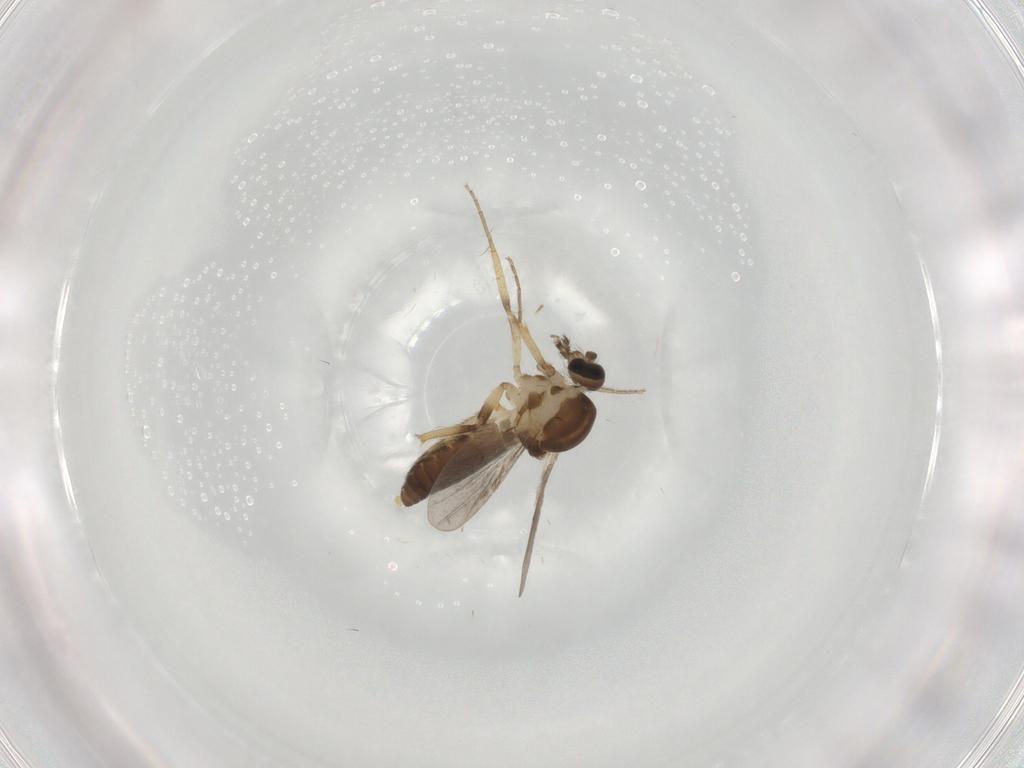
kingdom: Animalia
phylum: Arthropoda
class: Insecta
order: Diptera
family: Ceratopogonidae
